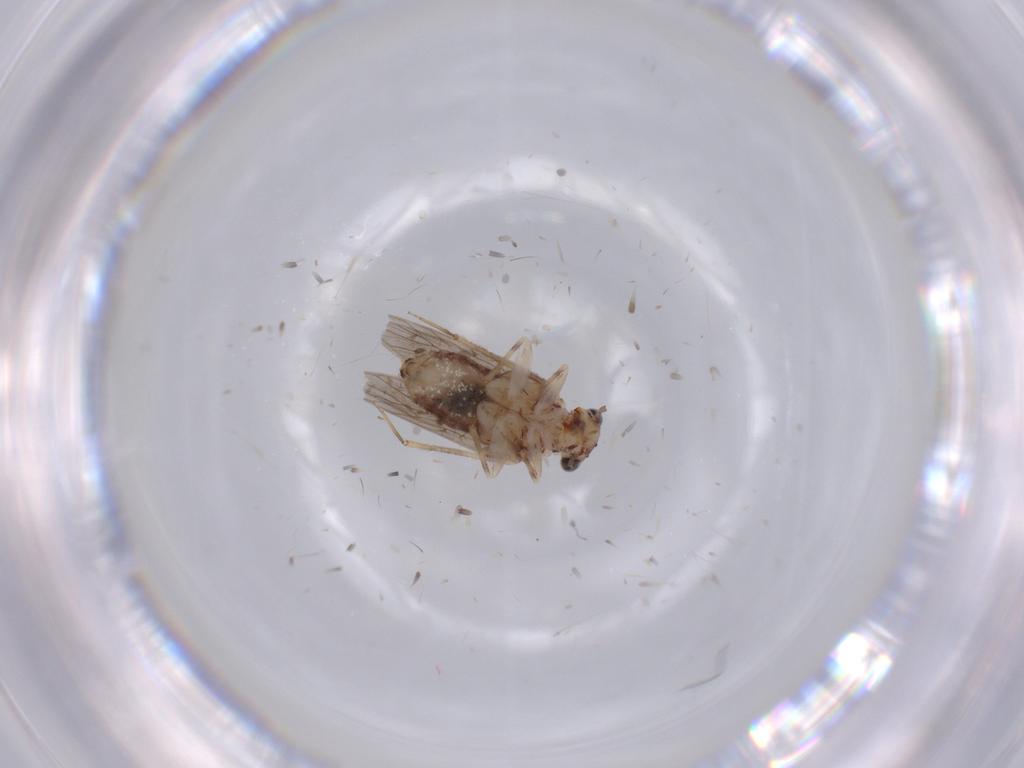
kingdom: Animalia
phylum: Arthropoda
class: Insecta
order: Psocodea
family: Lepidopsocidae
